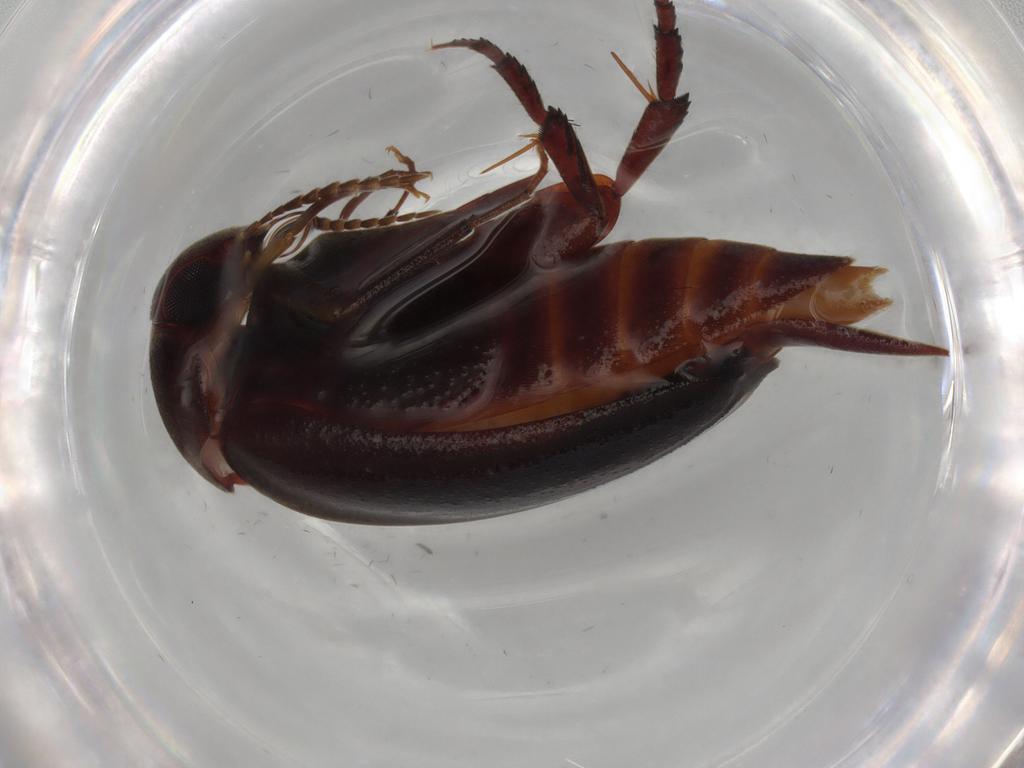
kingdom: Animalia
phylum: Arthropoda
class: Insecta
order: Coleoptera
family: Mordellidae
